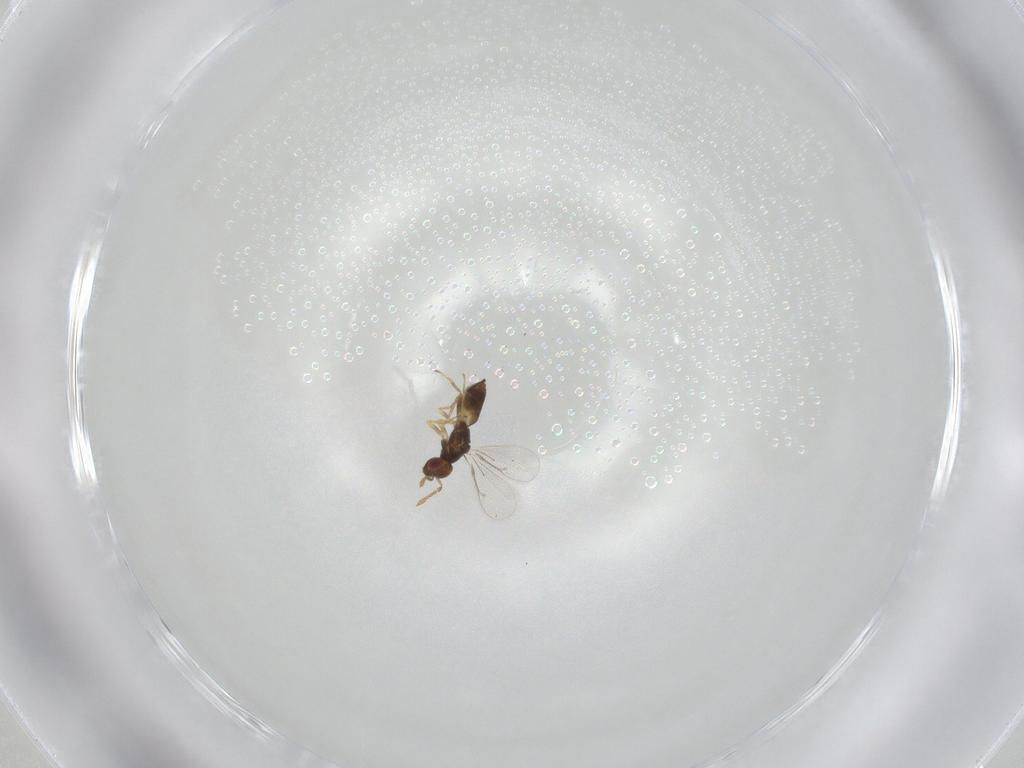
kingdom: Animalia
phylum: Arthropoda
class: Insecta
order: Hymenoptera
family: Eulophidae
